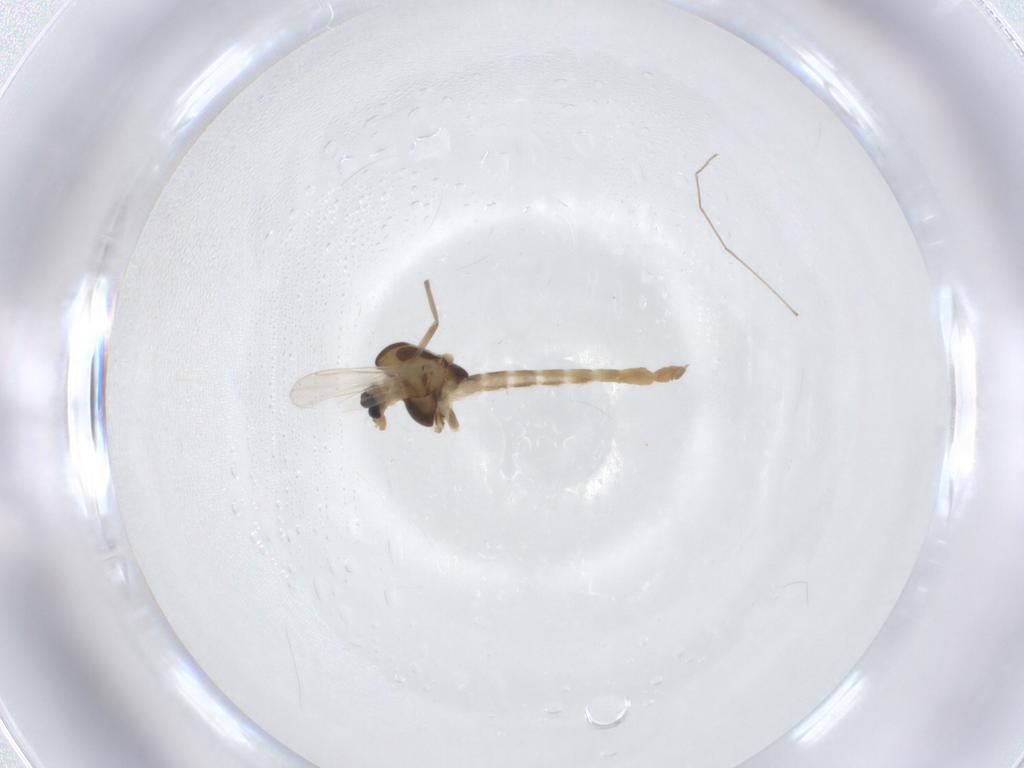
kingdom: Animalia
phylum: Arthropoda
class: Insecta
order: Diptera
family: Chironomidae
